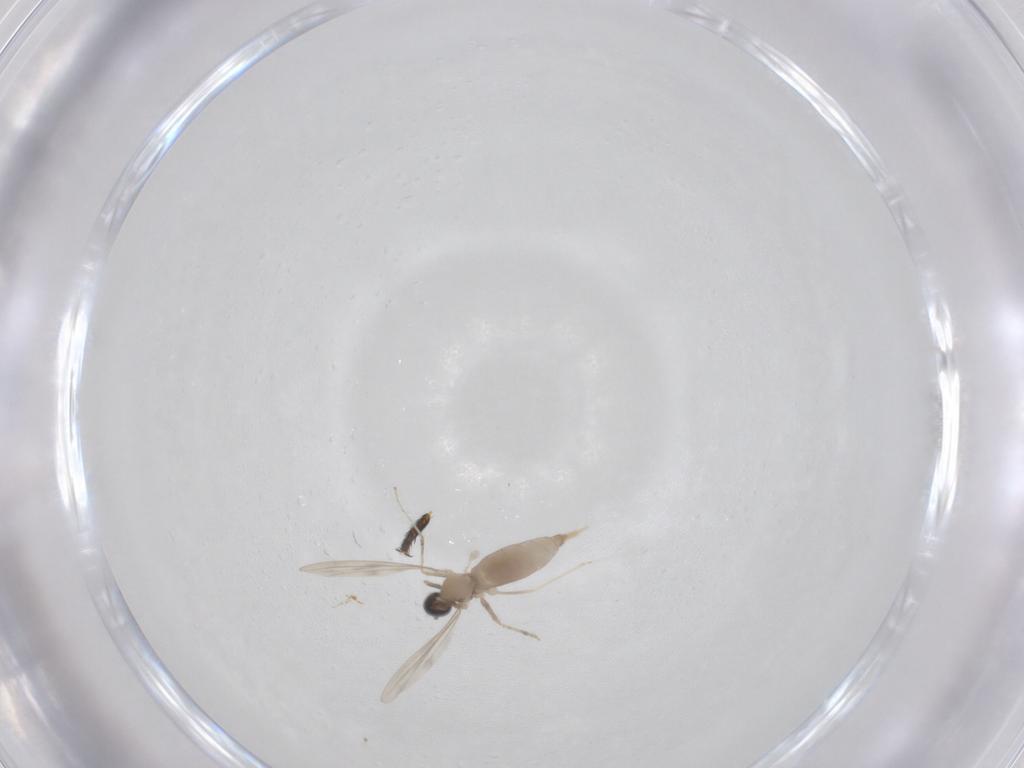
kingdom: Animalia
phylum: Arthropoda
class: Insecta
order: Diptera
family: Curtonotidae
